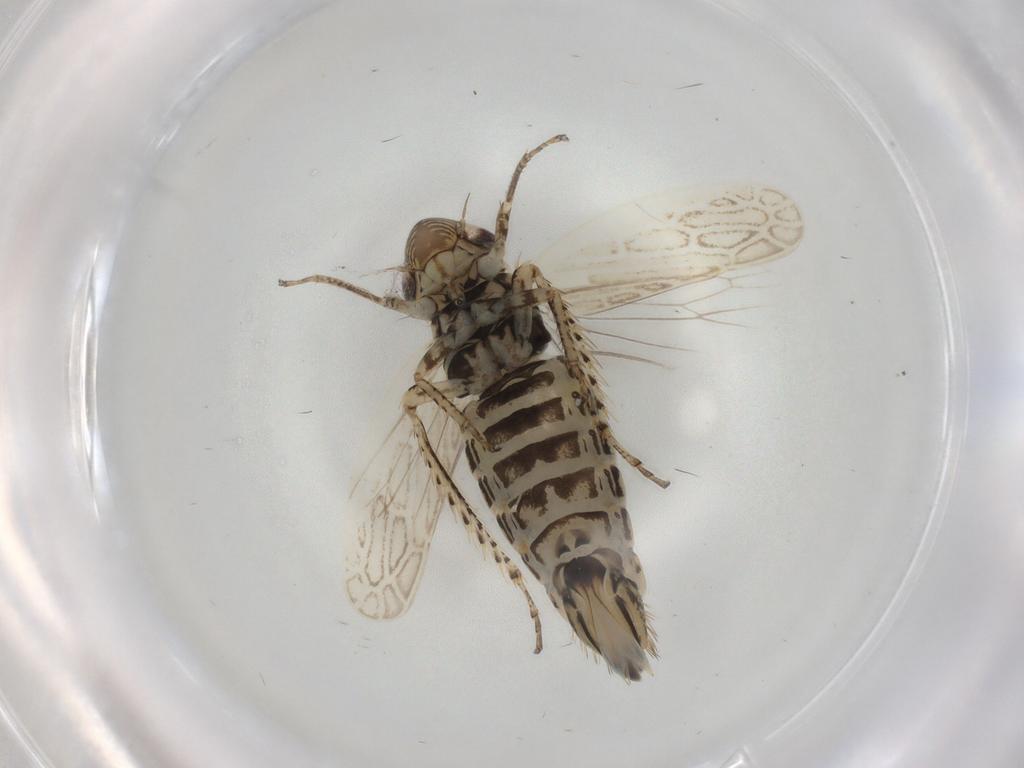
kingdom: Animalia
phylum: Arthropoda
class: Insecta
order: Hemiptera
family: Cicadellidae
